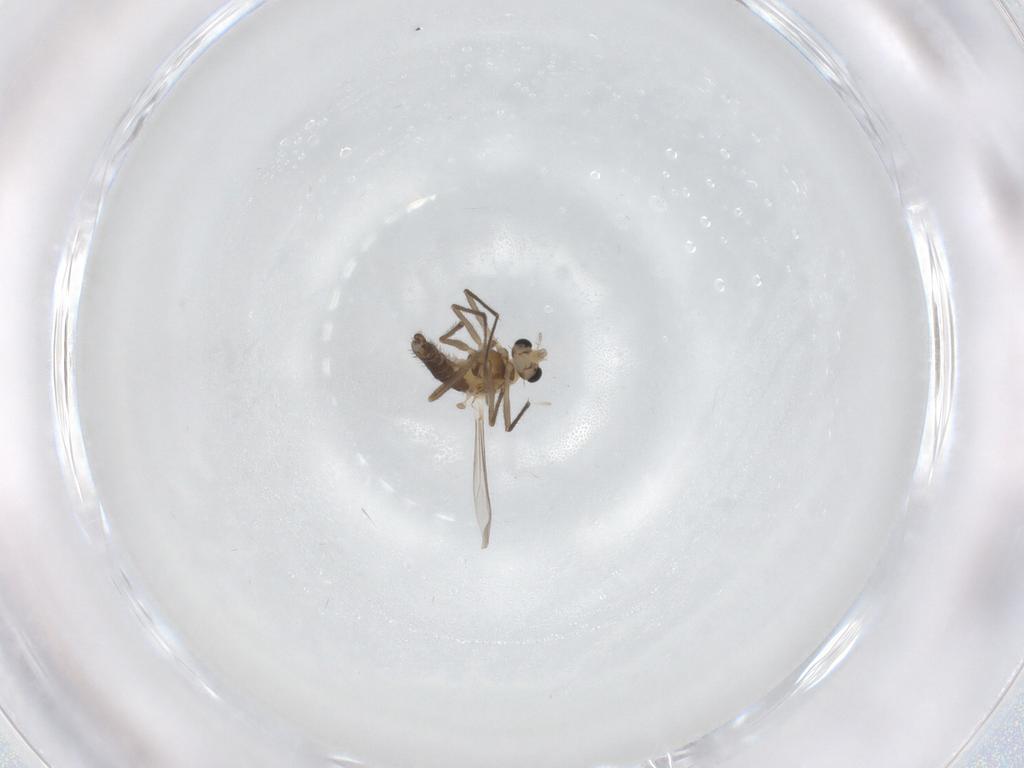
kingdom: Animalia
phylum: Arthropoda
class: Insecta
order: Diptera
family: Chironomidae
